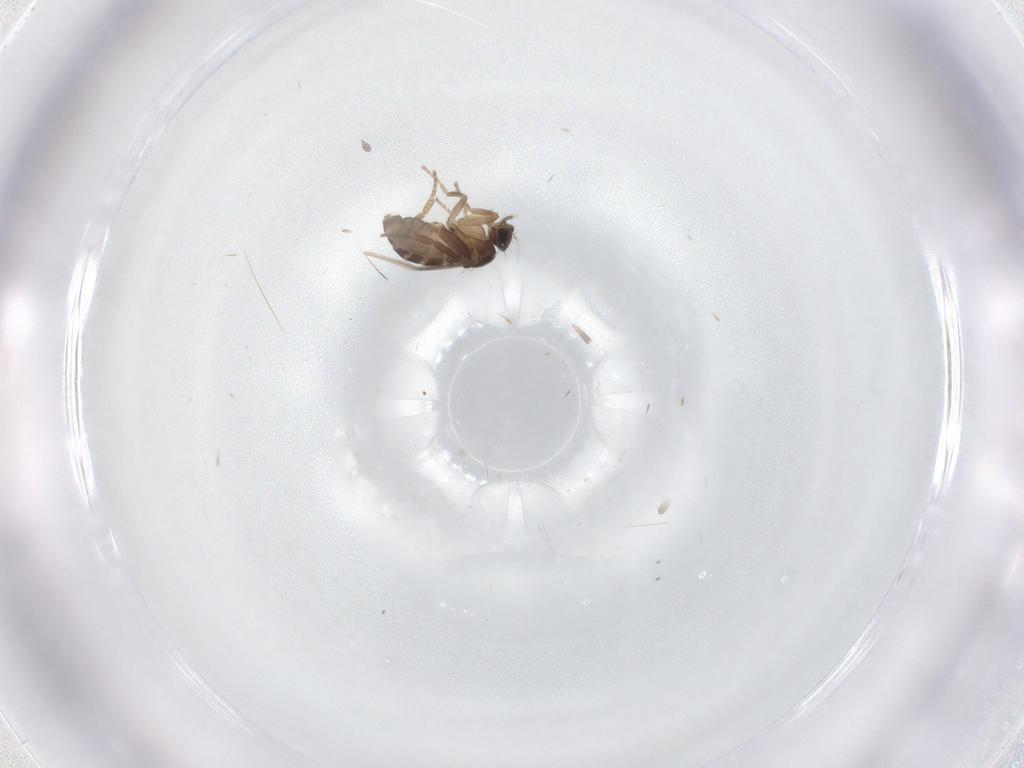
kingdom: Animalia
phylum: Arthropoda
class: Insecta
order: Diptera
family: Phoridae
